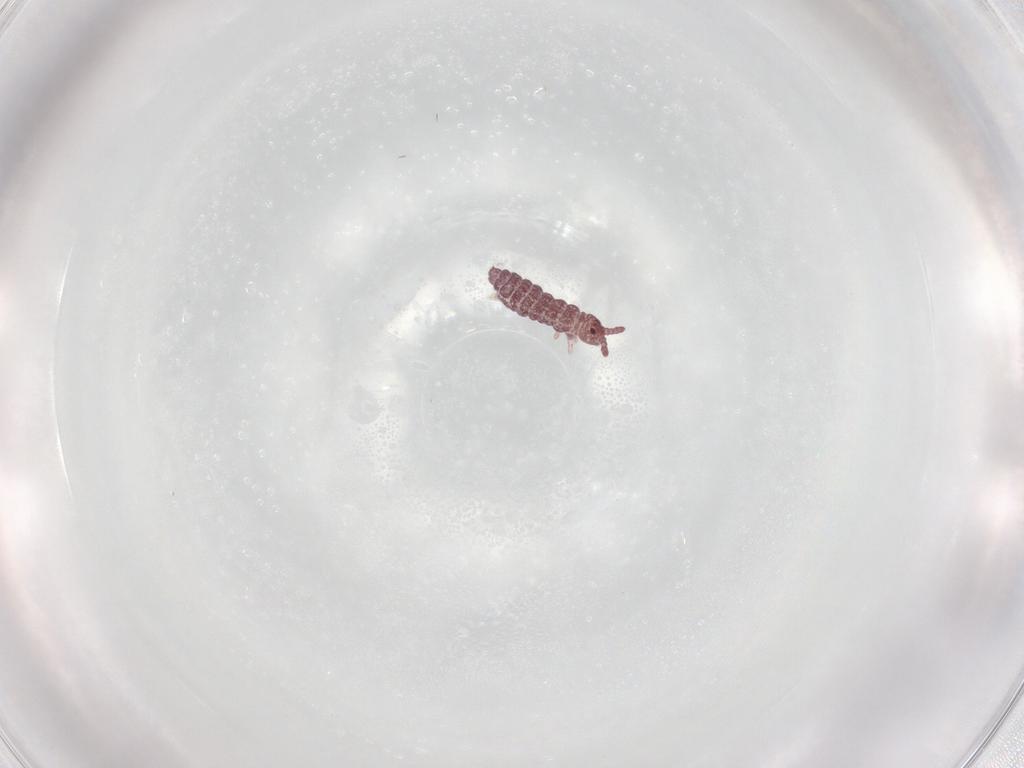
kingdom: Animalia
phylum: Arthropoda
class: Collembola
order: Poduromorpha
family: Hypogastruridae
